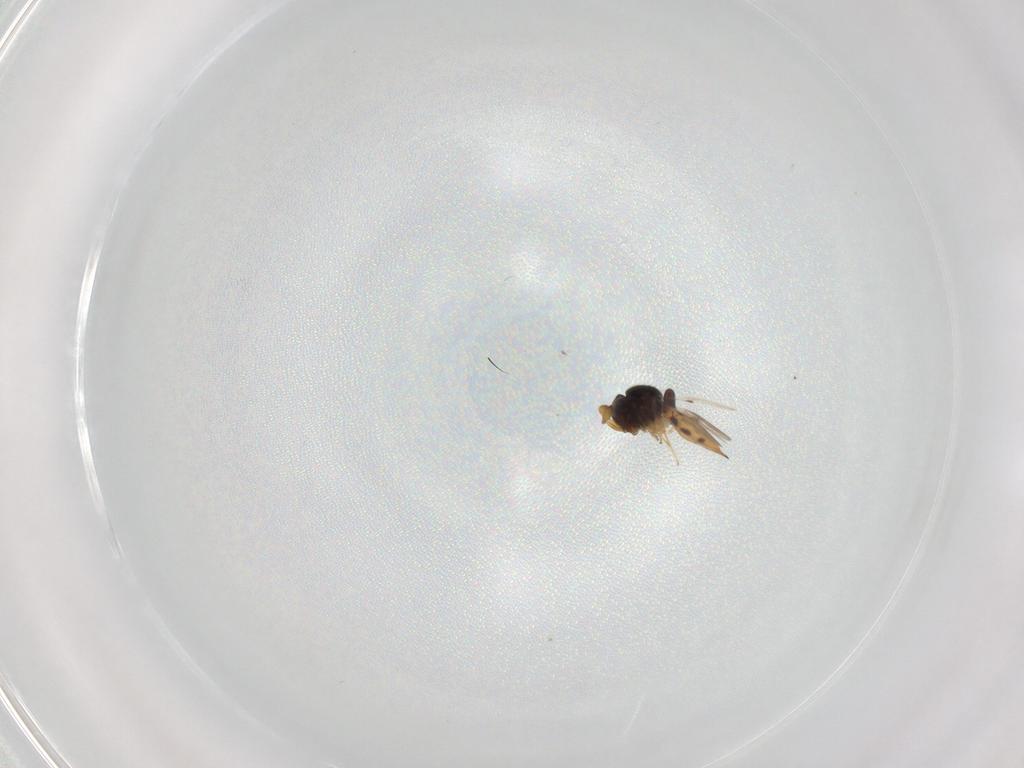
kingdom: Animalia
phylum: Arthropoda
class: Insecta
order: Hymenoptera
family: Scelionidae
